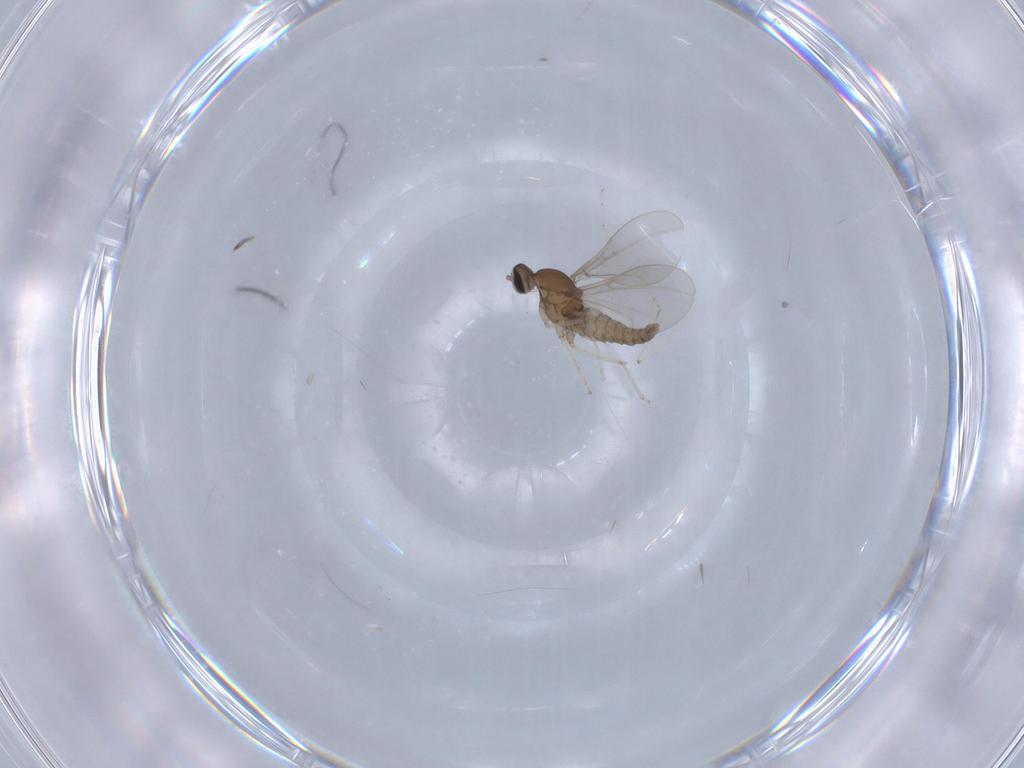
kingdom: Animalia
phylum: Arthropoda
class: Insecta
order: Diptera
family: Cecidomyiidae
